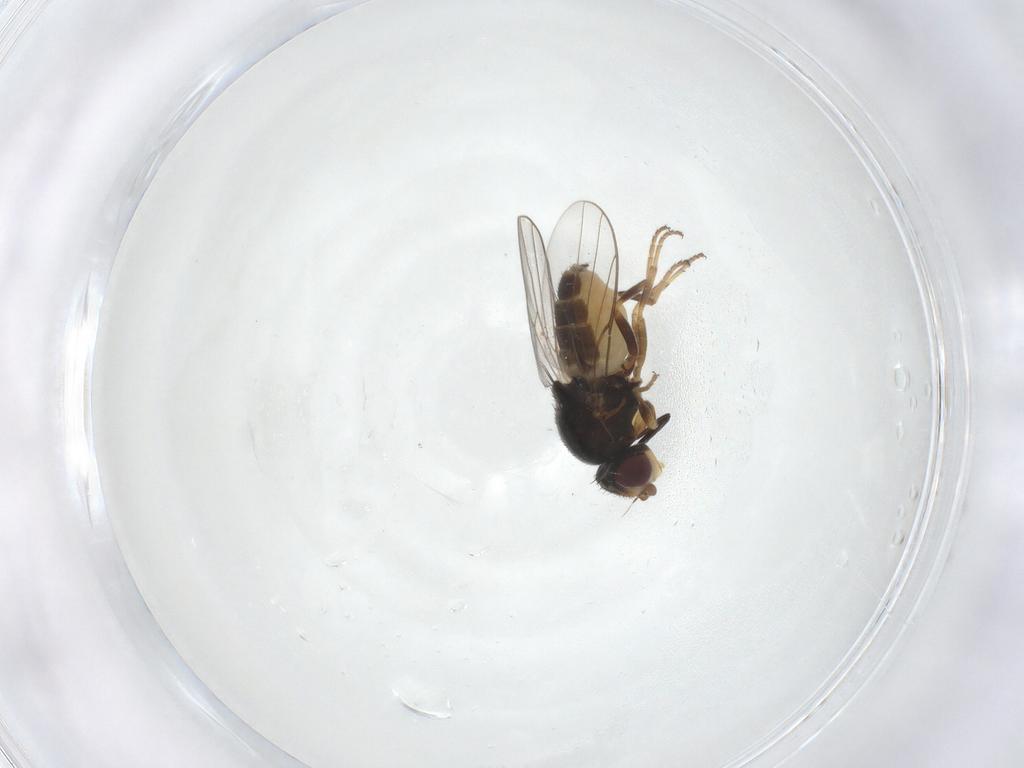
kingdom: Animalia
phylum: Arthropoda
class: Insecta
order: Diptera
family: Chloropidae
